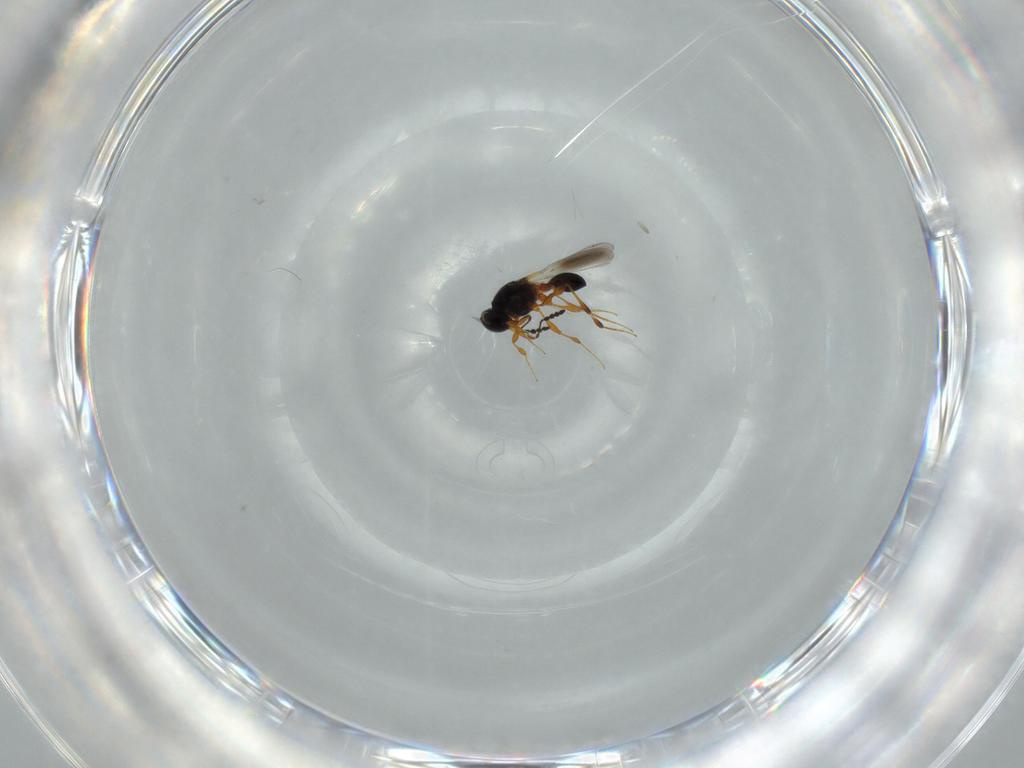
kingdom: Animalia
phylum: Arthropoda
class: Insecta
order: Hymenoptera
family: Platygastridae
